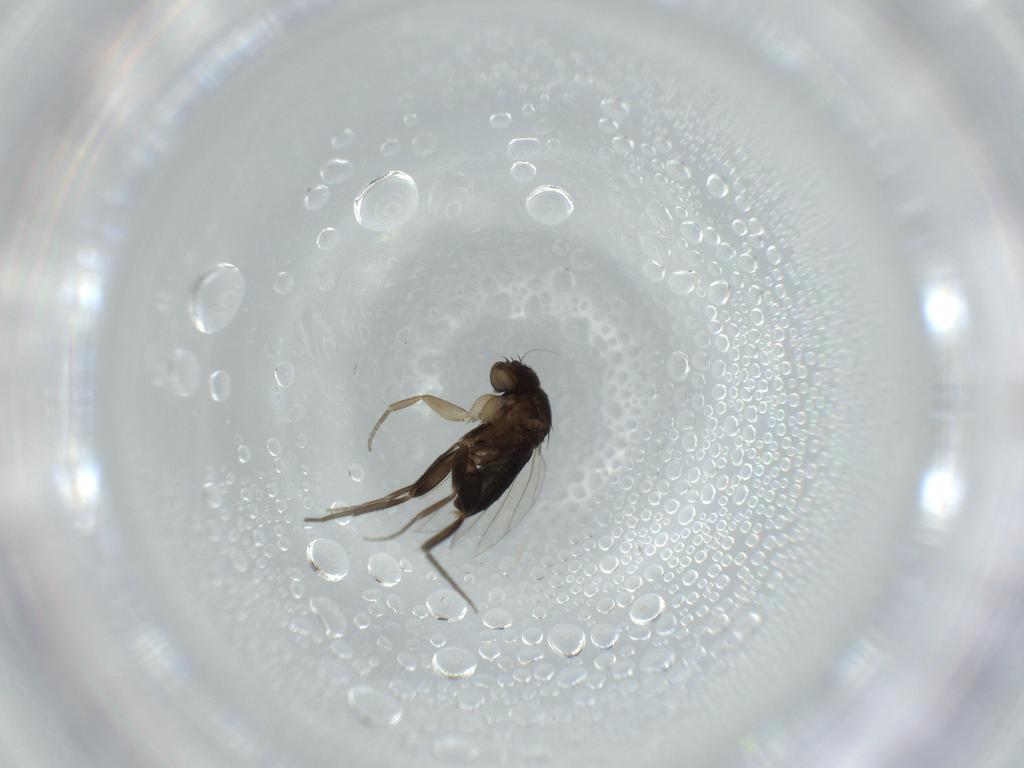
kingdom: Animalia
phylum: Arthropoda
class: Insecta
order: Diptera
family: Phoridae
